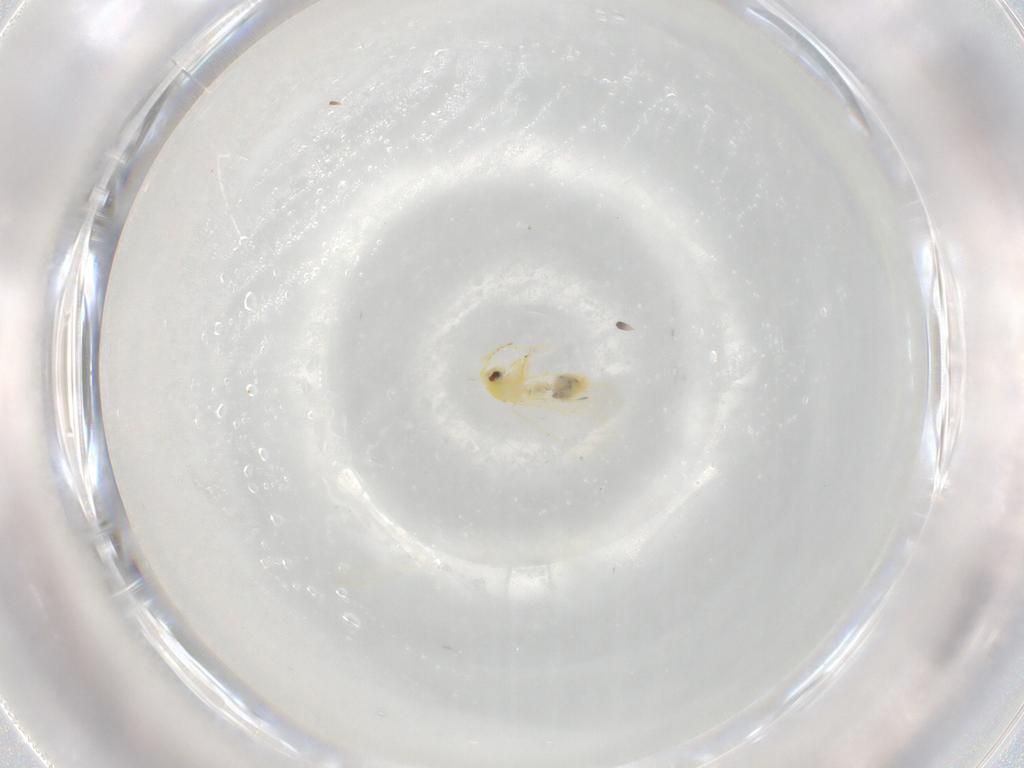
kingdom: Animalia
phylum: Arthropoda
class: Insecta
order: Hemiptera
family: Aleyrodidae
